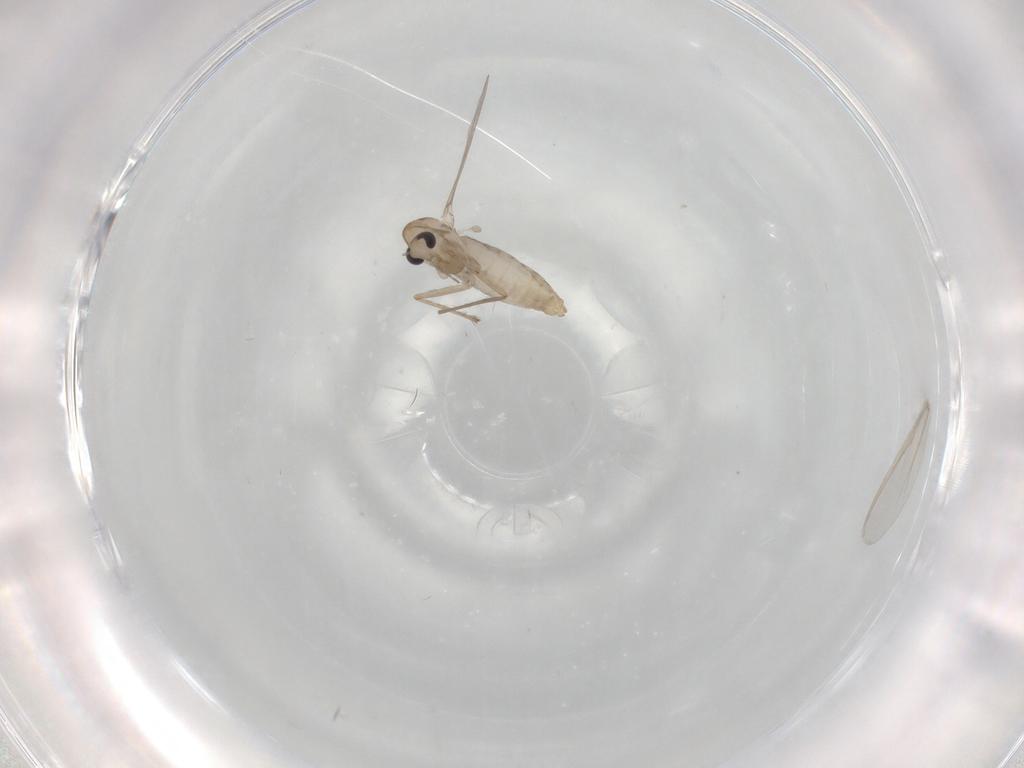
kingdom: Animalia
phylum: Arthropoda
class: Insecta
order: Diptera
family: Chironomidae
